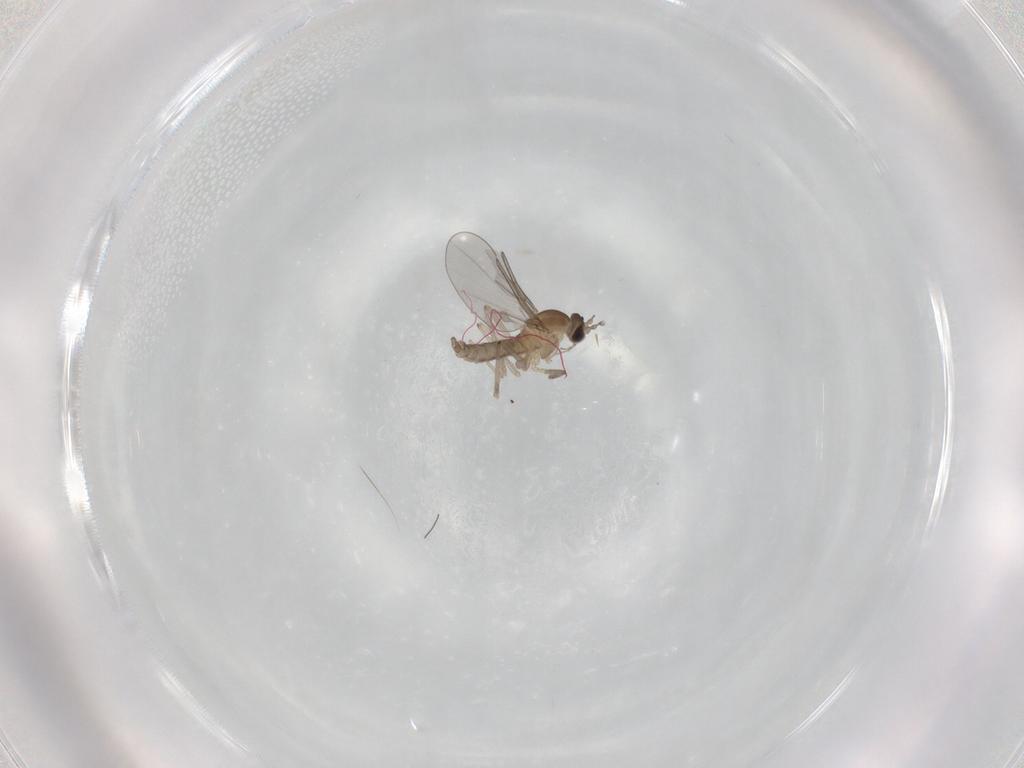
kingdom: Animalia
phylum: Arthropoda
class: Insecta
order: Diptera
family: Cecidomyiidae
